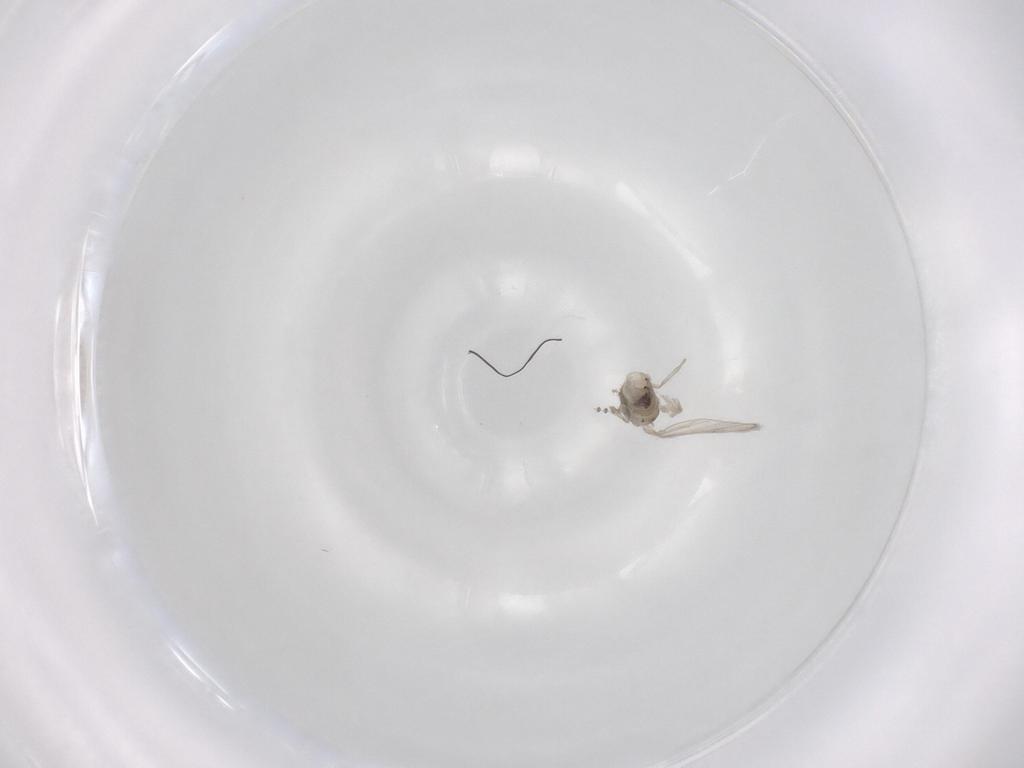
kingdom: Animalia
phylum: Arthropoda
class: Insecta
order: Diptera
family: Psychodidae
